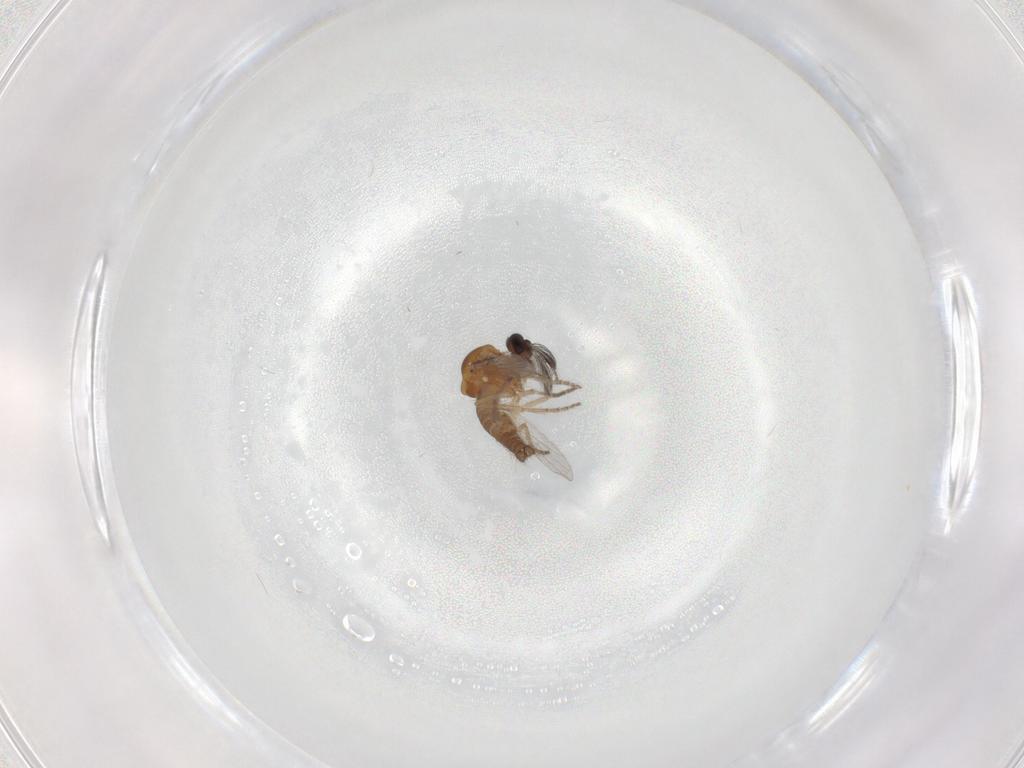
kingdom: Animalia
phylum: Arthropoda
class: Insecta
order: Diptera
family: Ceratopogonidae
